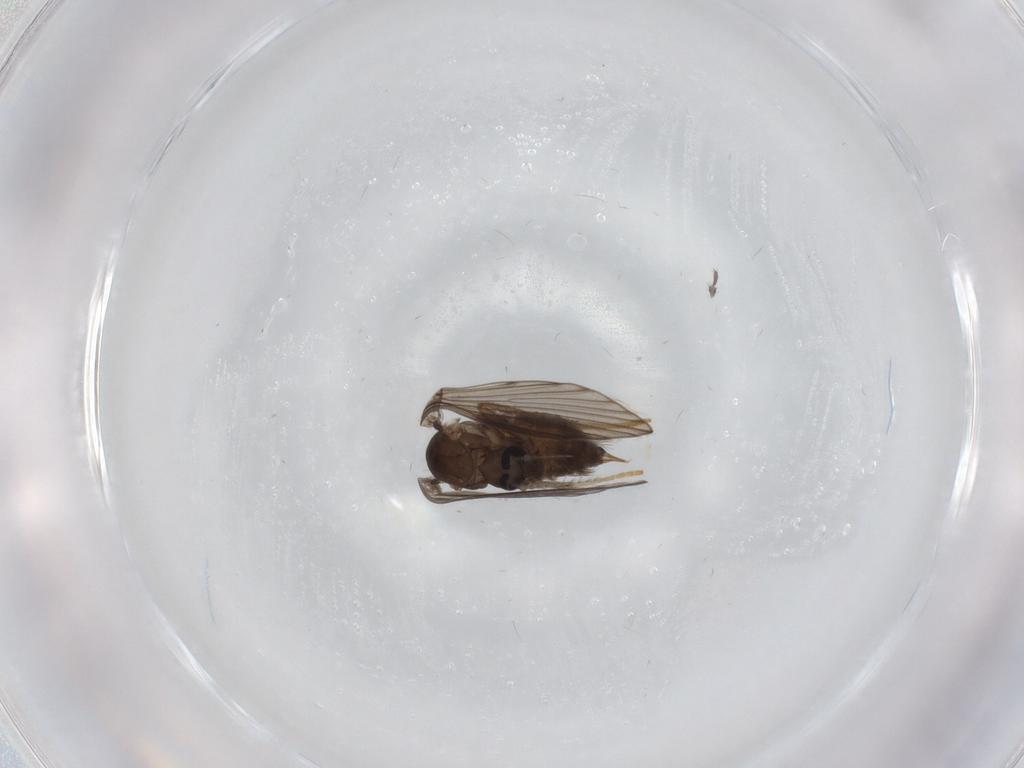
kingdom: Animalia
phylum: Arthropoda
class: Insecta
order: Diptera
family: Psychodidae
